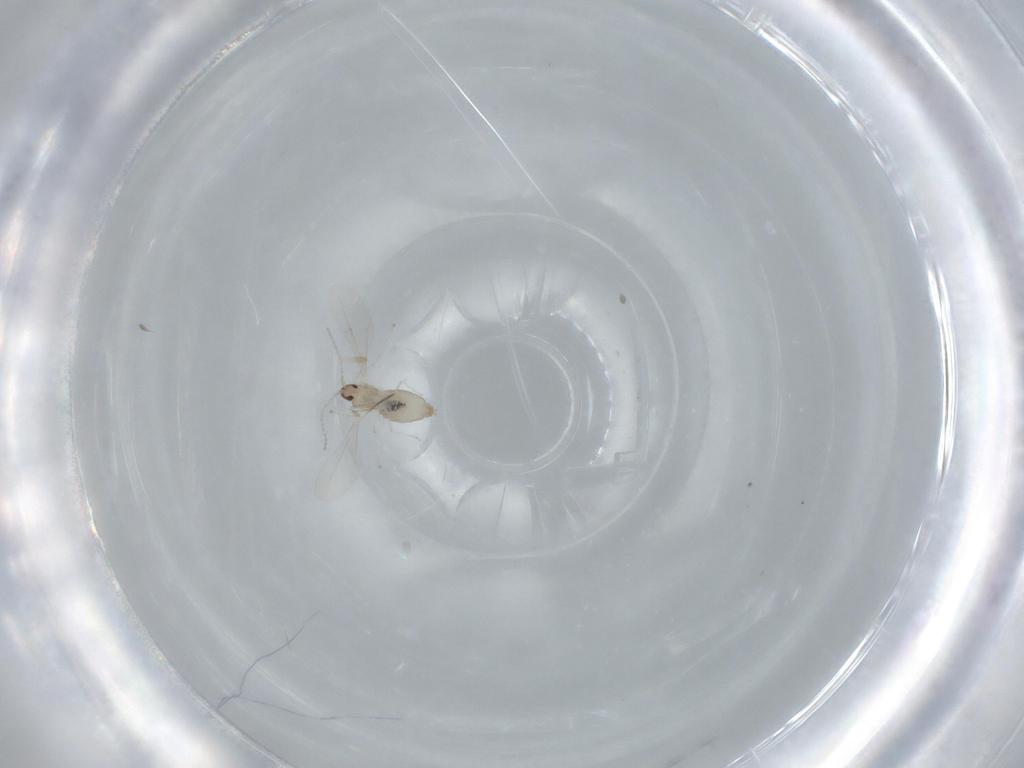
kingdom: Animalia
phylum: Arthropoda
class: Insecta
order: Diptera
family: Cecidomyiidae
